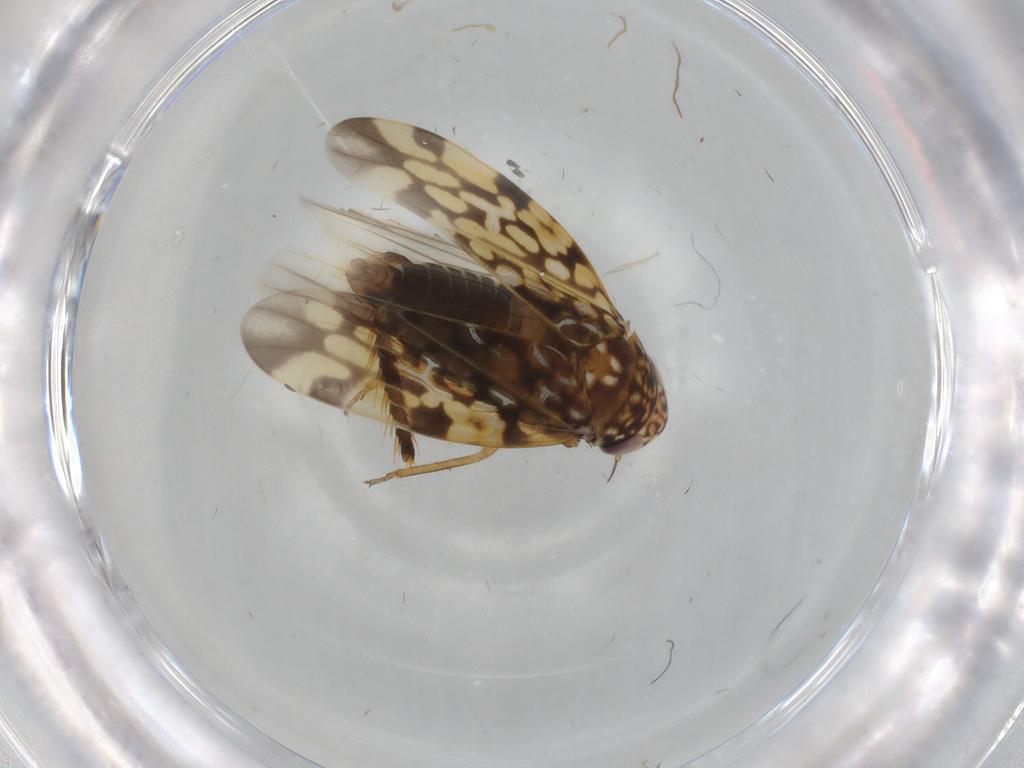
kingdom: Animalia
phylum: Arthropoda
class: Insecta
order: Hemiptera
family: Cicadellidae
